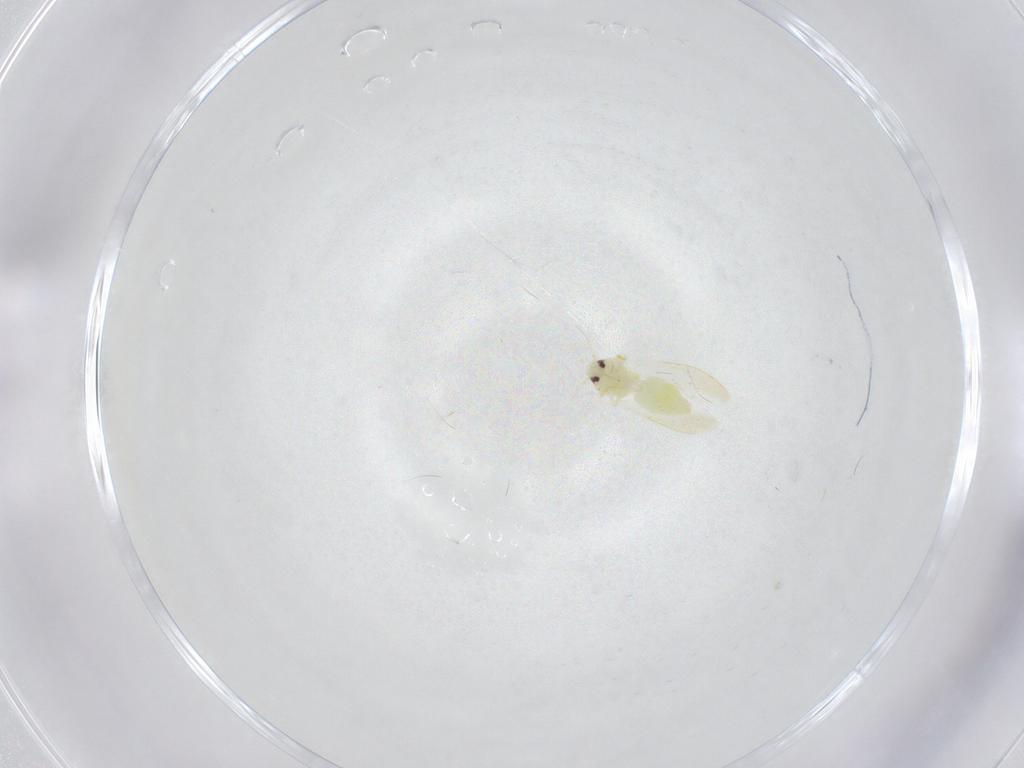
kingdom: Animalia
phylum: Arthropoda
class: Insecta
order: Hemiptera
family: Aleyrodidae
